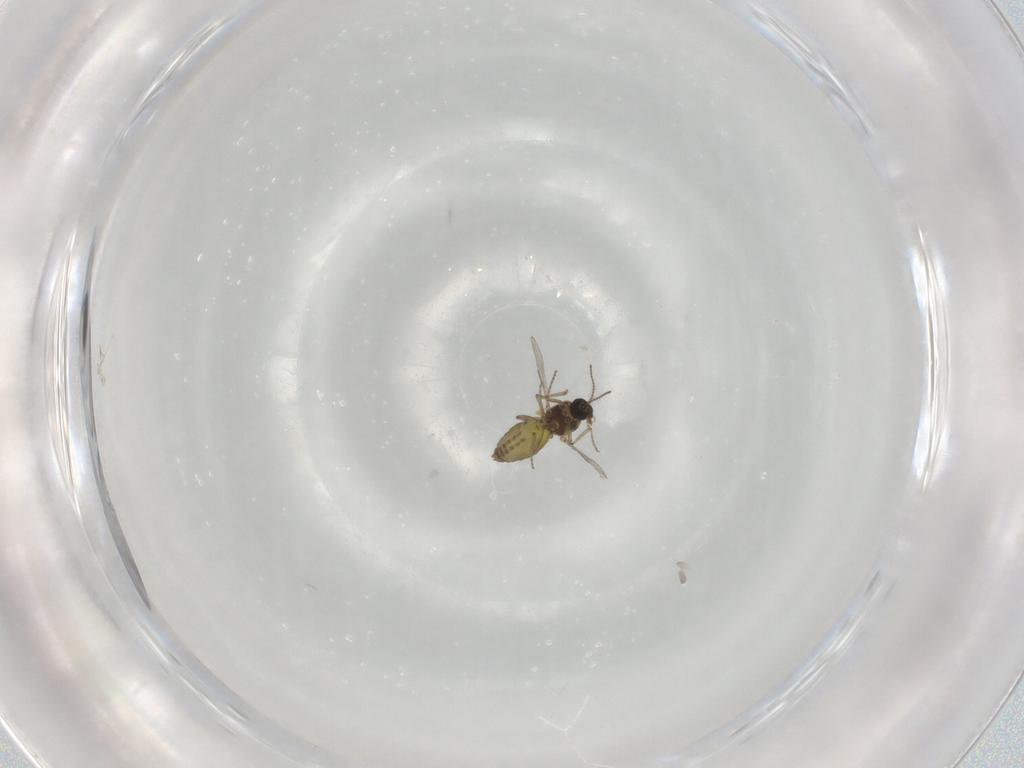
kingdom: Animalia
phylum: Arthropoda
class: Insecta
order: Diptera
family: Ceratopogonidae
